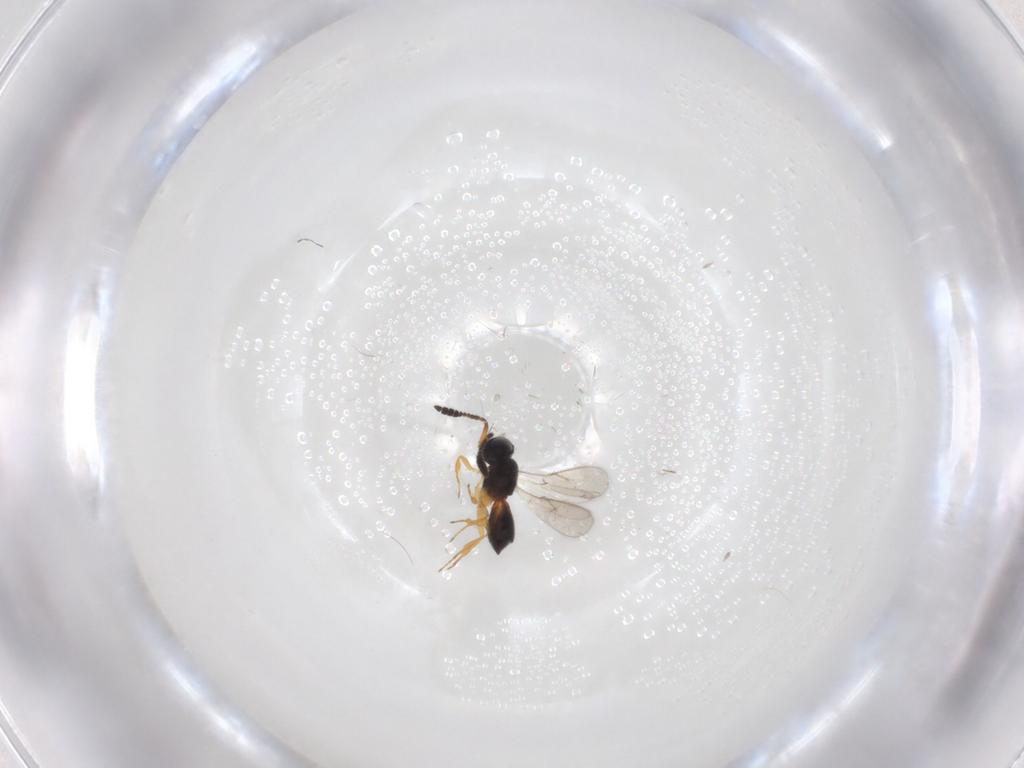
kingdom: Animalia
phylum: Arthropoda
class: Insecta
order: Hymenoptera
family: Scelionidae
